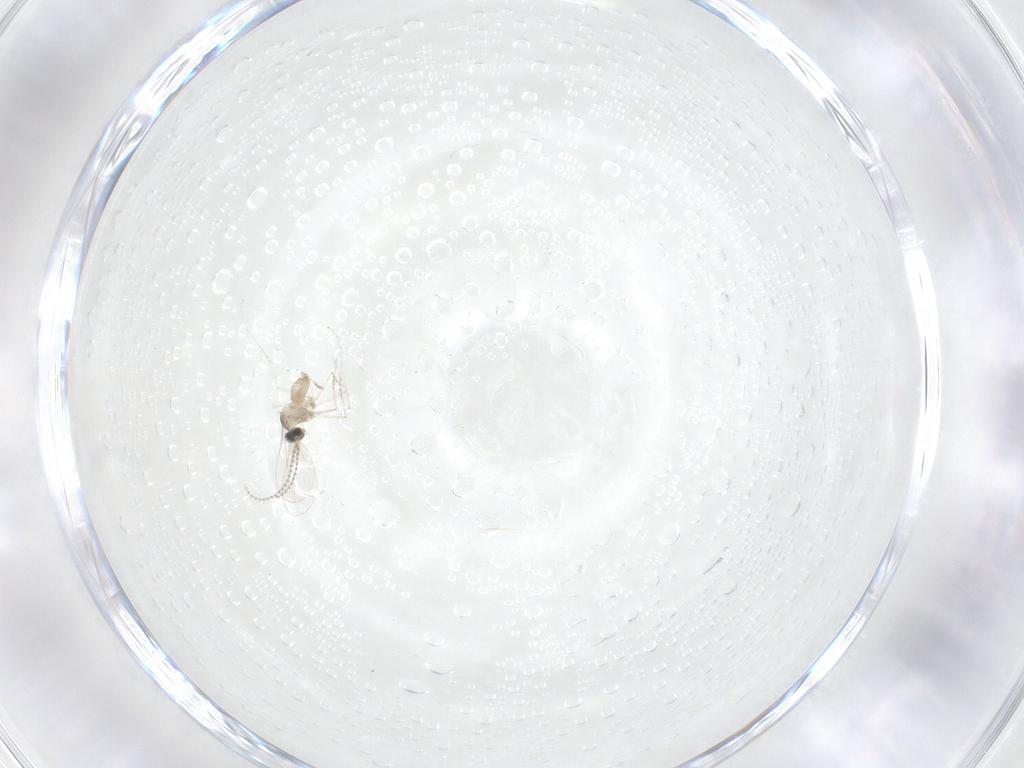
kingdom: Animalia
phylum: Arthropoda
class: Insecta
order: Diptera
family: Cecidomyiidae
